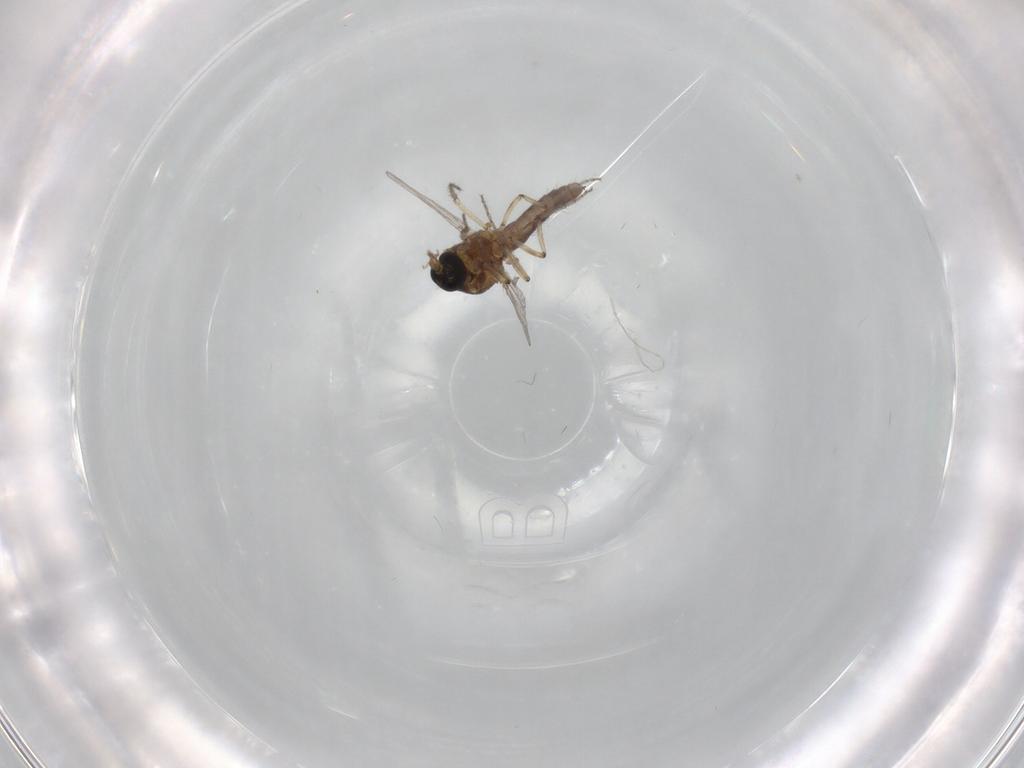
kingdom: Animalia
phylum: Arthropoda
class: Insecta
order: Diptera
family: Ceratopogonidae
